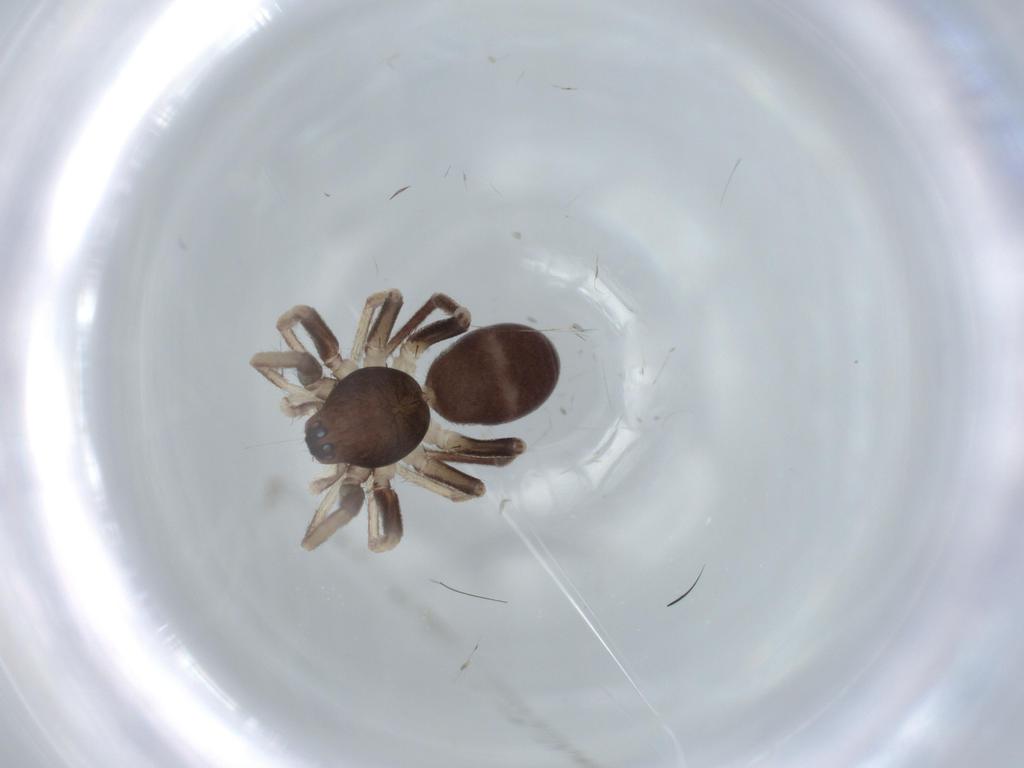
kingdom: Animalia
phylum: Arthropoda
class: Arachnida
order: Araneae
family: Corinnidae
